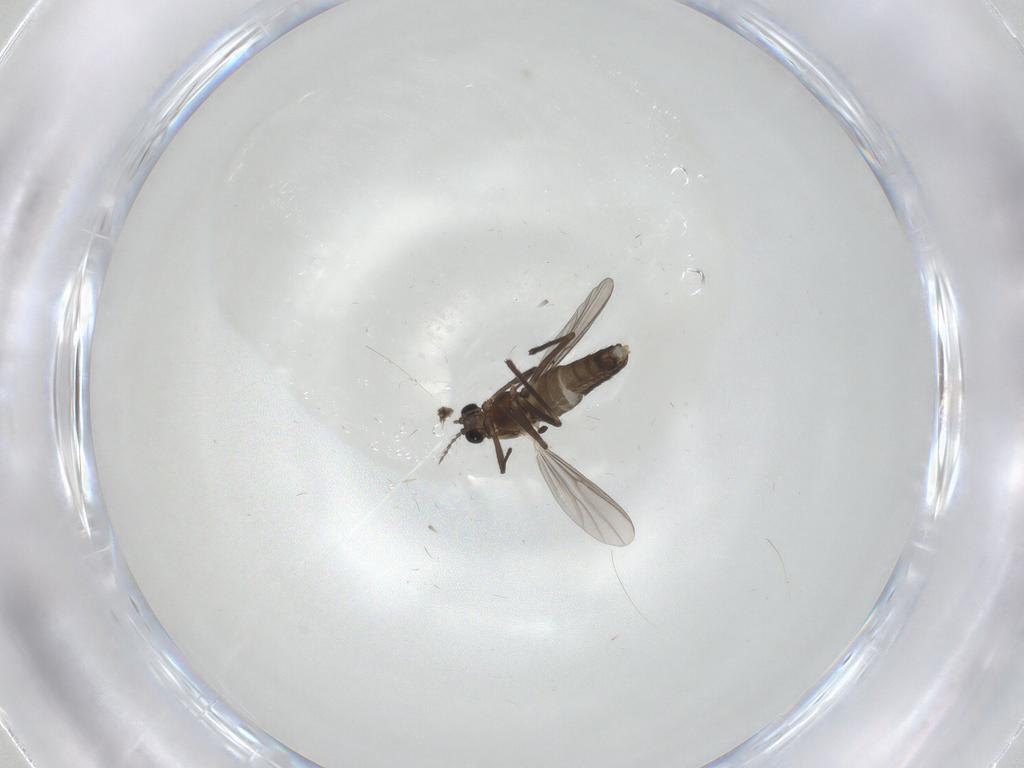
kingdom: Animalia
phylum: Arthropoda
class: Insecta
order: Diptera
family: Chironomidae
